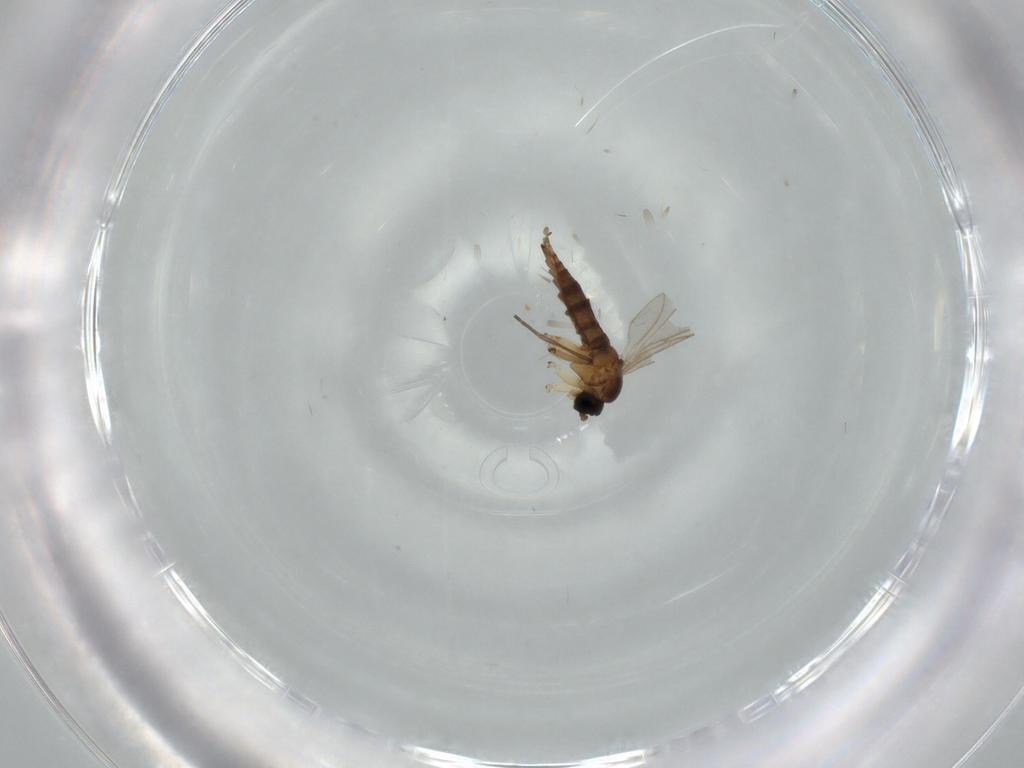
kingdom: Animalia
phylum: Arthropoda
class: Insecta
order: Diptera
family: Sciaridae
